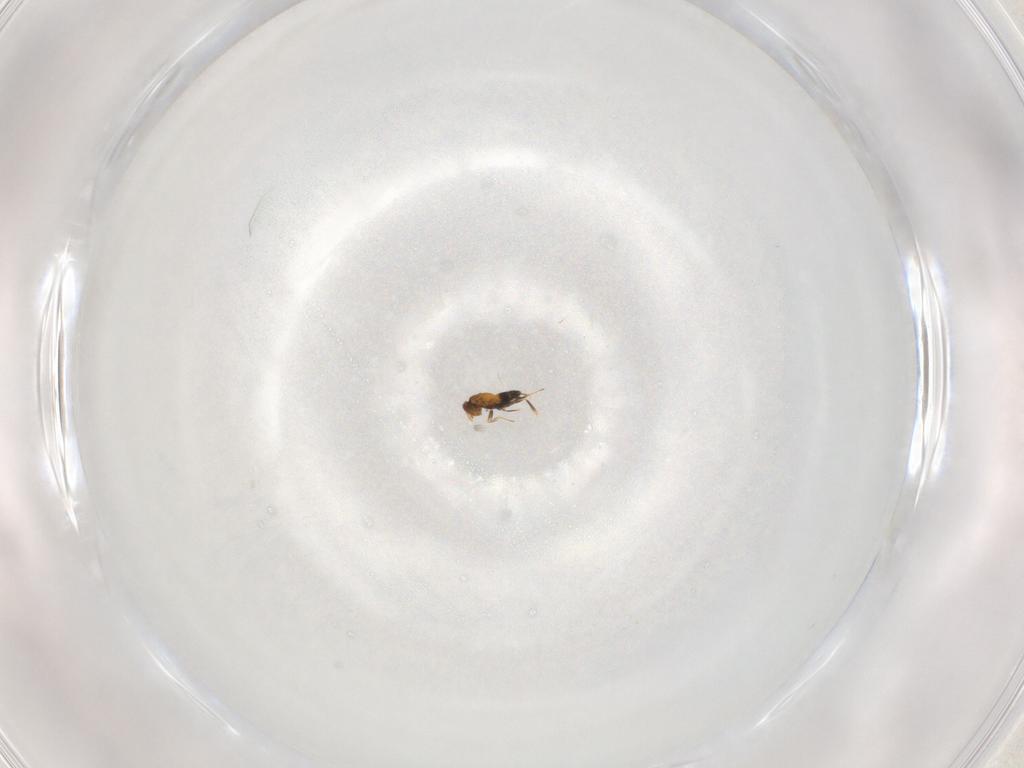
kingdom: Animalia
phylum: Arthropoda
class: Insecta
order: Hymenoptera
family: Trichogrammatidae
